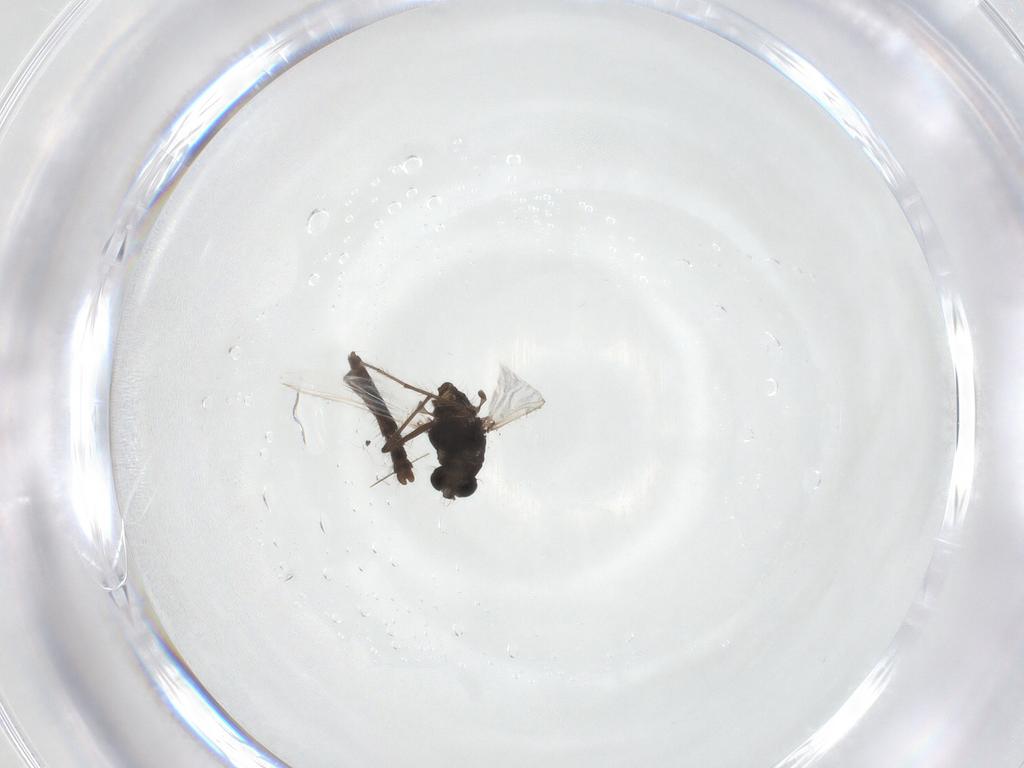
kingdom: Animalia
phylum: Arthropoda
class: Insecta
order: Diptera
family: Chironomidae
